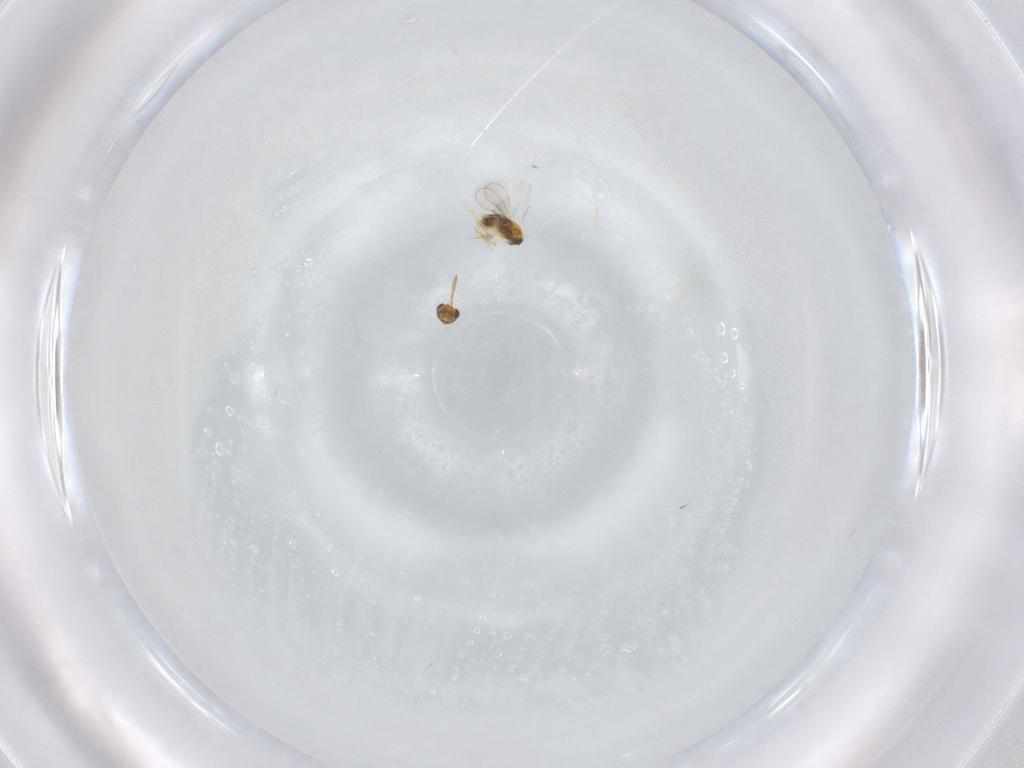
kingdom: Animalia
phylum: Arthropoda
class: Insecta
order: Hymenoptera
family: Aphelinidae
